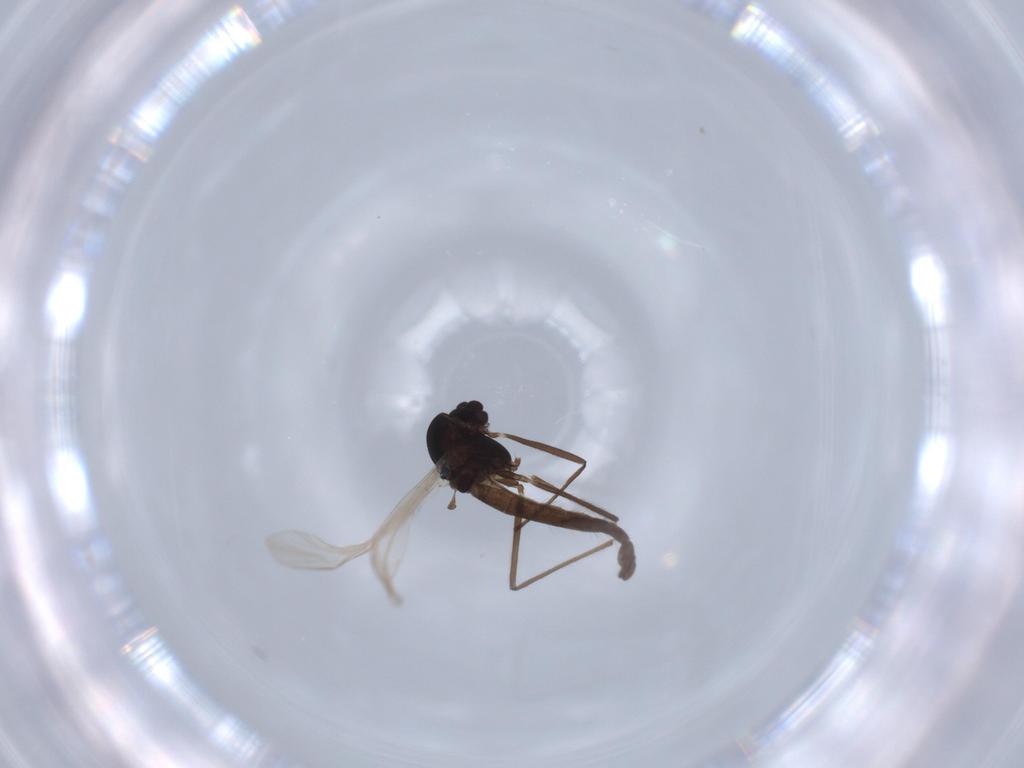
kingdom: Animalia
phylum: Arthropoda
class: Insecta
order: Diptera
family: Chironomidae
